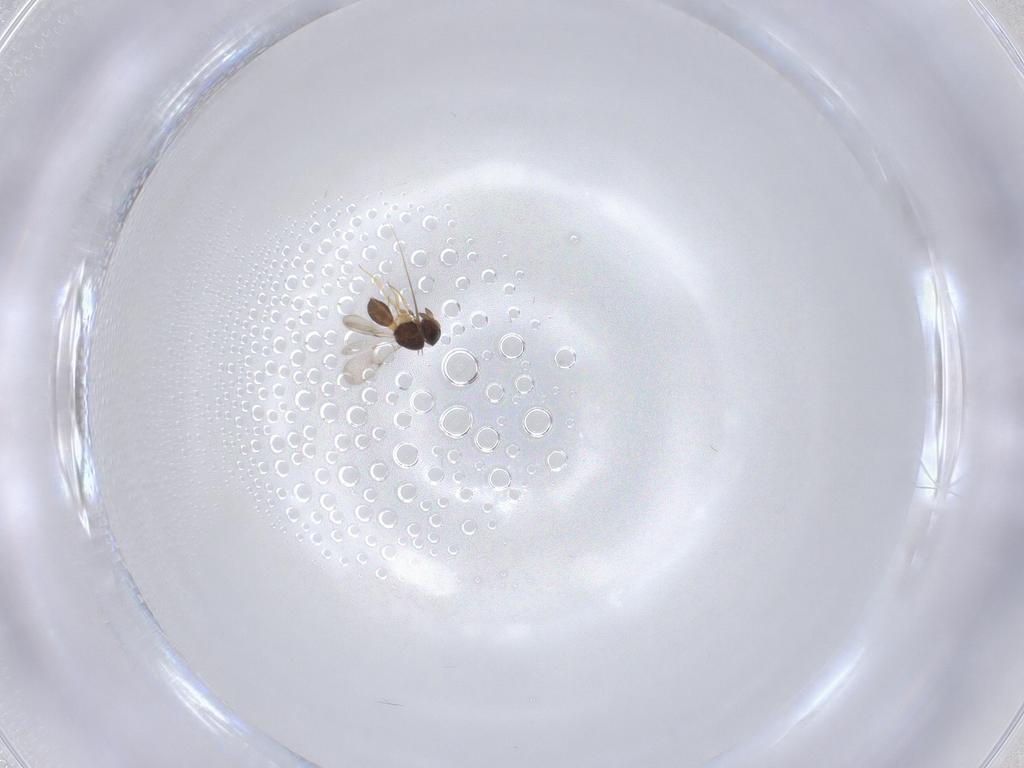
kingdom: Animalia
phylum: Arthropoda
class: Insecta
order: Hymenoptera
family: Scelionidae
